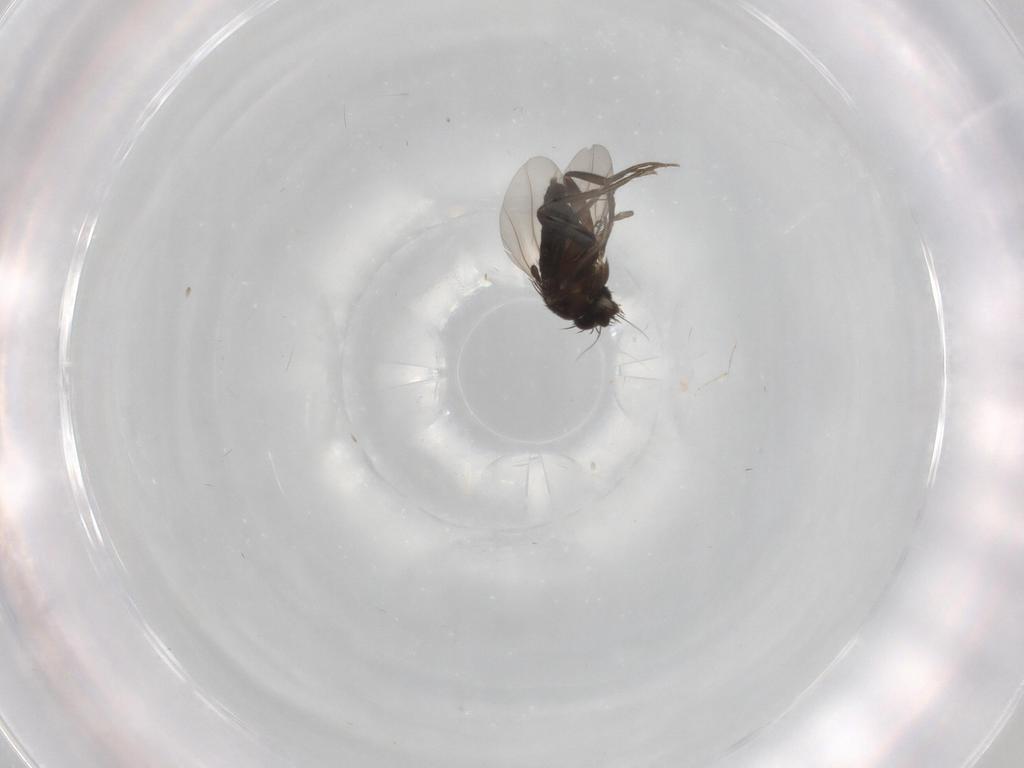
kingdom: Animalia
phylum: Arthropoda
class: Insecta
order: Diptera
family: Phoridae
